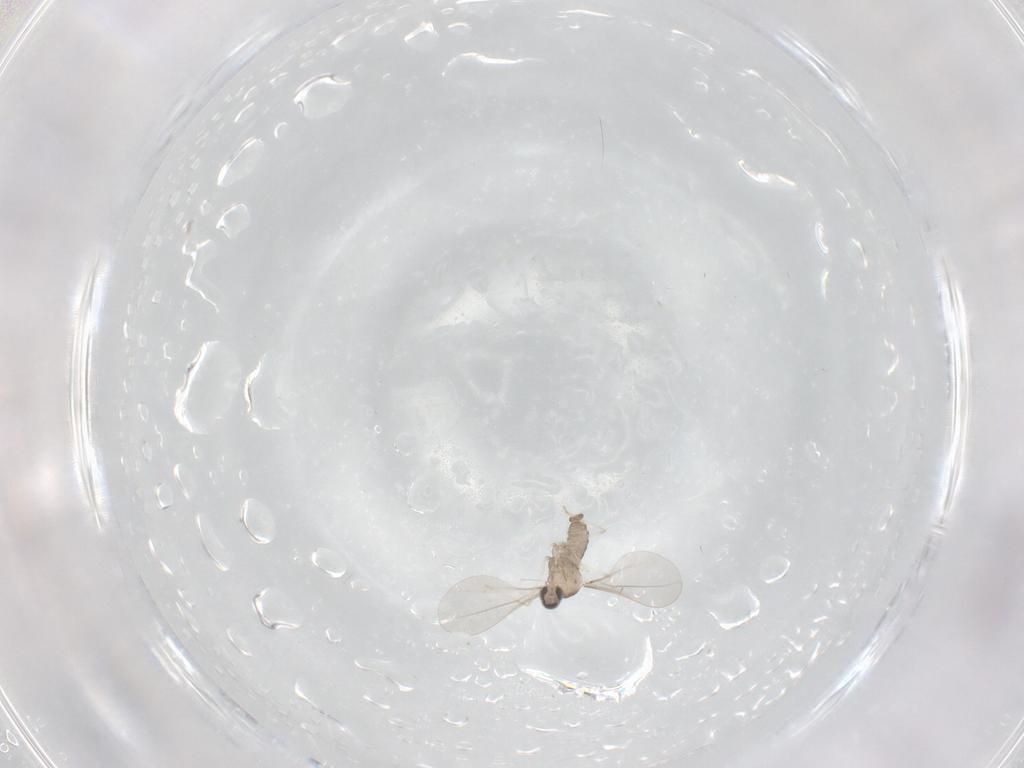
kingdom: Animalia
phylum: Arthropoda
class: Insecta
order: Diptera
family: Cecidomyiidae
